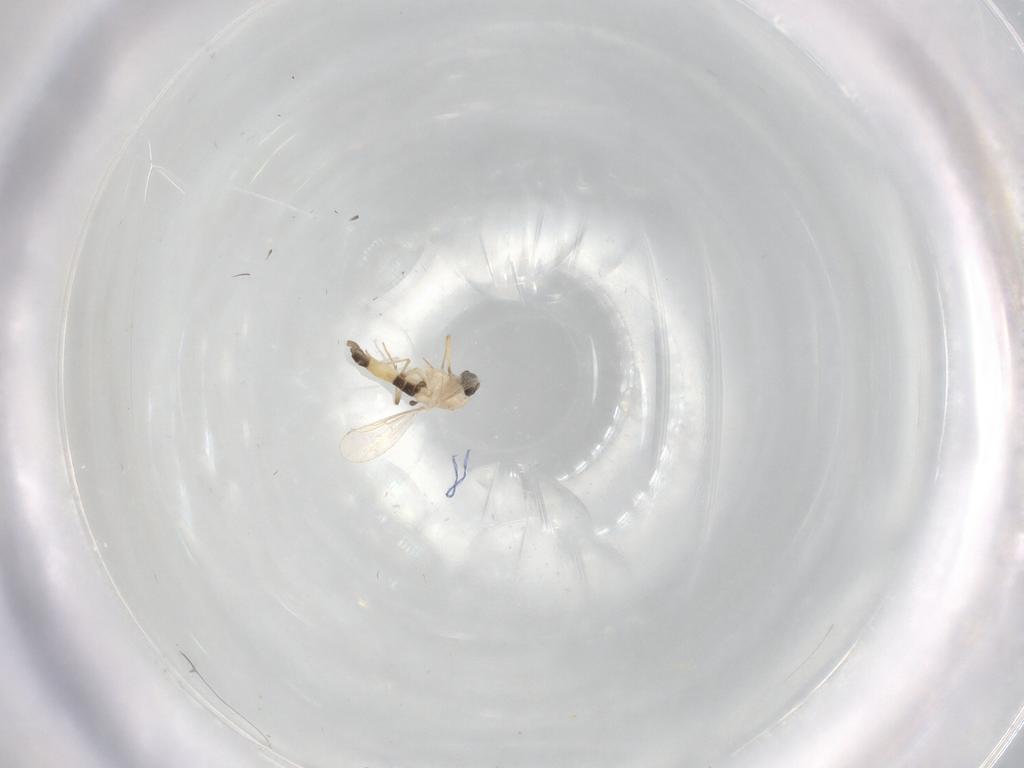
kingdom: Animalia
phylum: Arthropoda
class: Insecta
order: Diptera
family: Chironomidae
